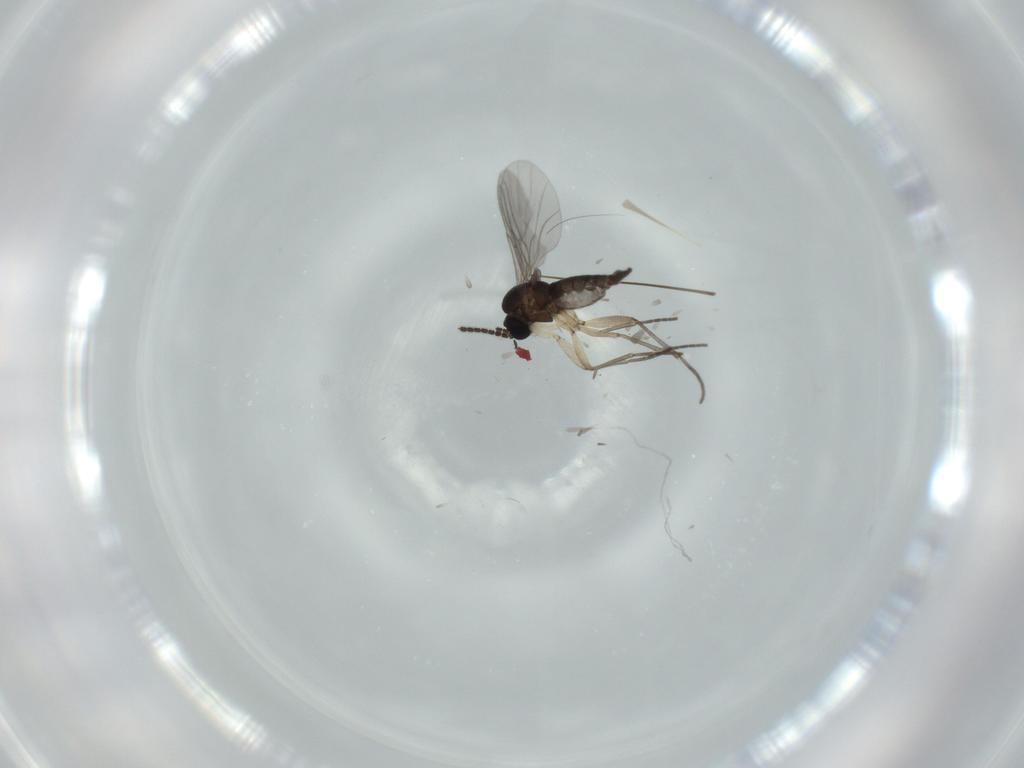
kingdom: Animalia
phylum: Arthropoda
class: Insecta
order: Diptera
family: Sciaridae
